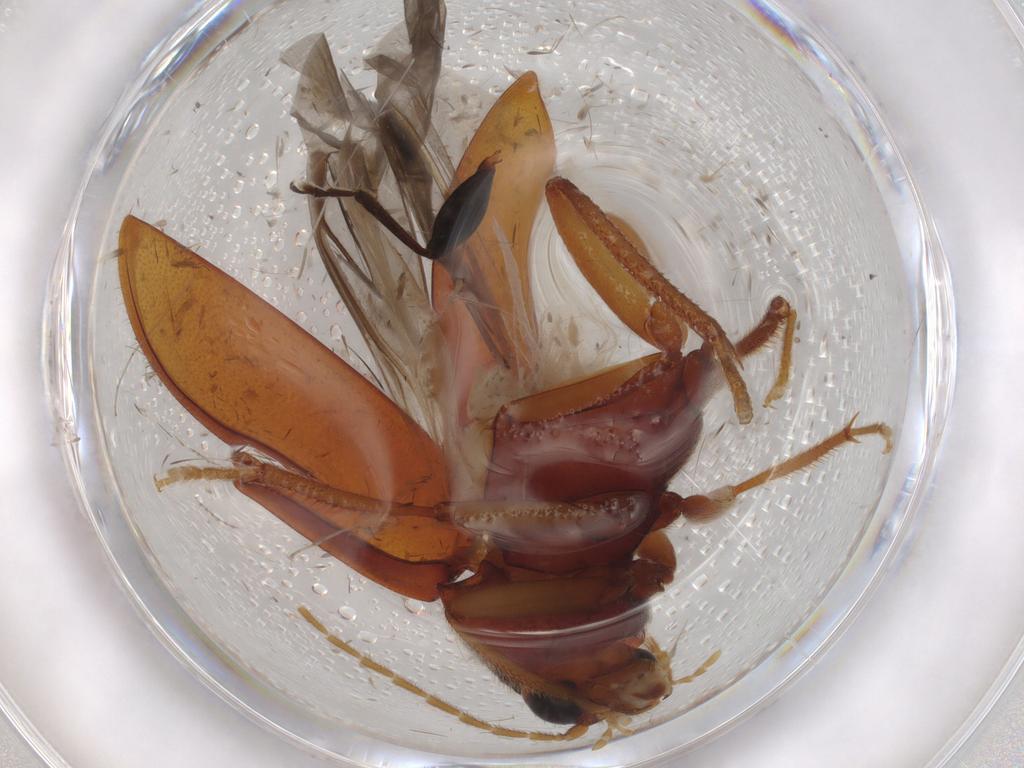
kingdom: Animalia
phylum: Arthropoda
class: Insecta
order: Coleoptera
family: Ptilodactylidae
